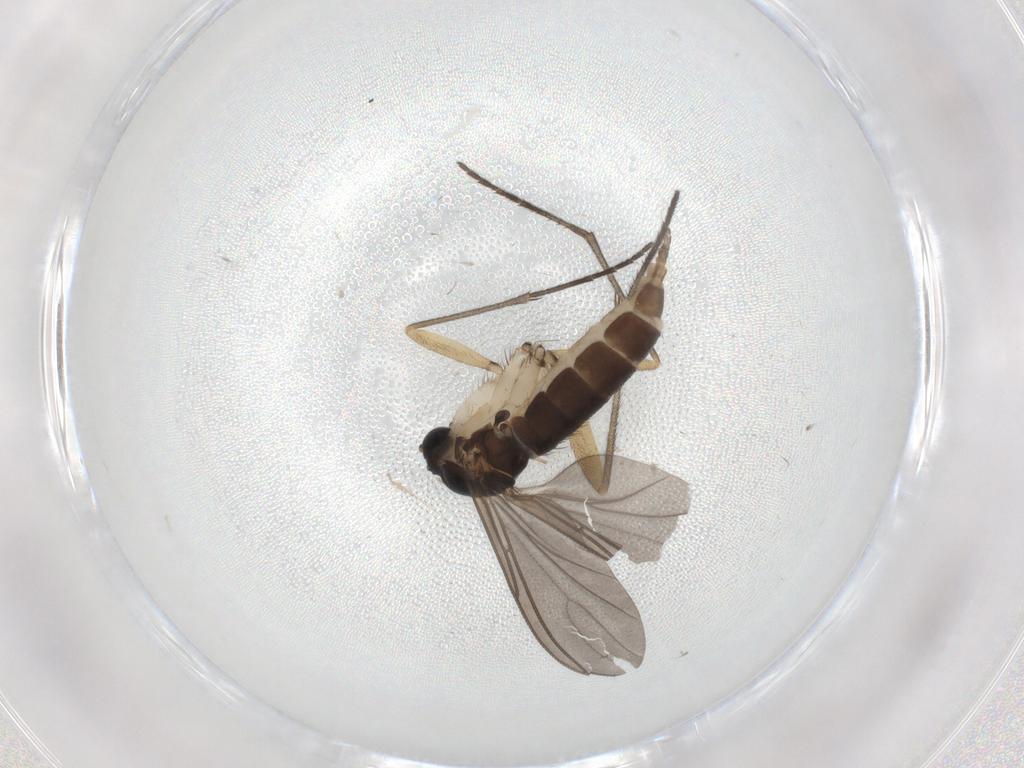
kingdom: Animalia
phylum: Arthropoda
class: Insecta
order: Diptera
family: Sciaridae
